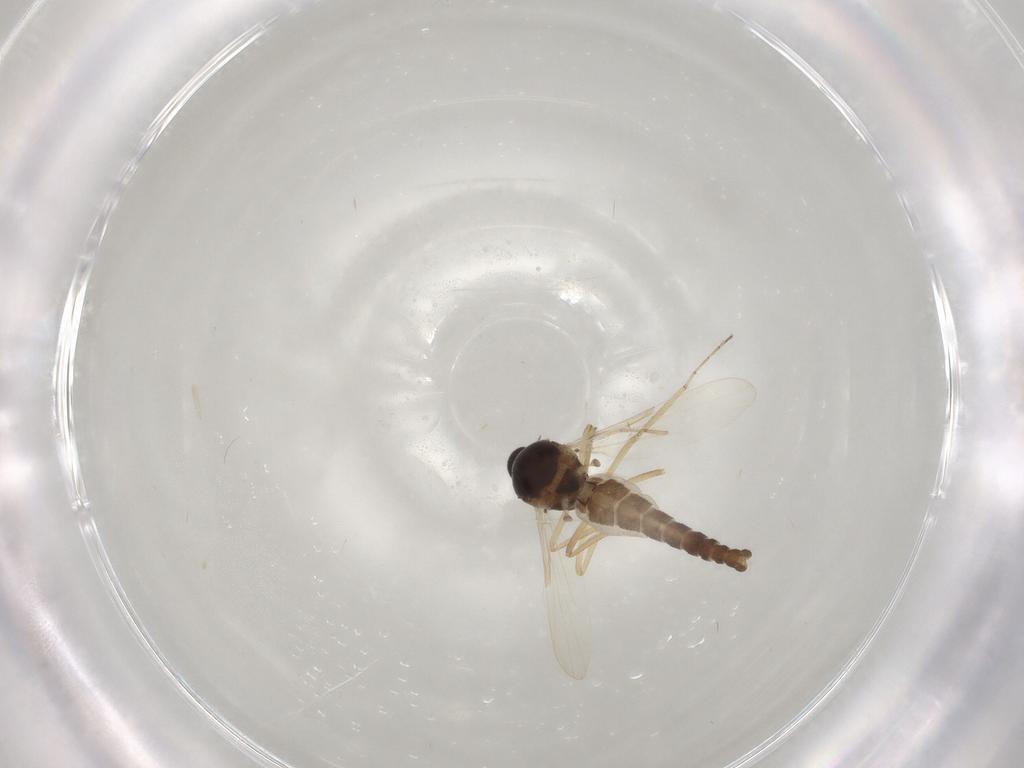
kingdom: Animalia
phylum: Arthropoda
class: Insecta
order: Diptera
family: Ceratopogonidae
